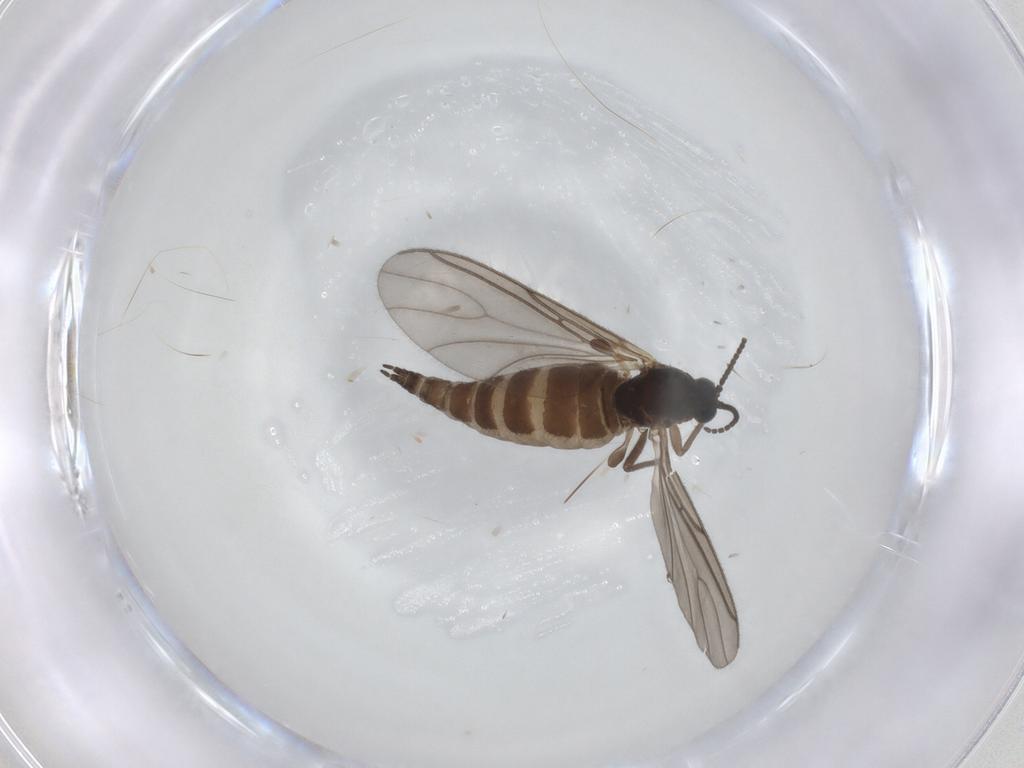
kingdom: Animalia
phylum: Arthropoda
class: Insecta
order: Diptera
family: Sciaridae
